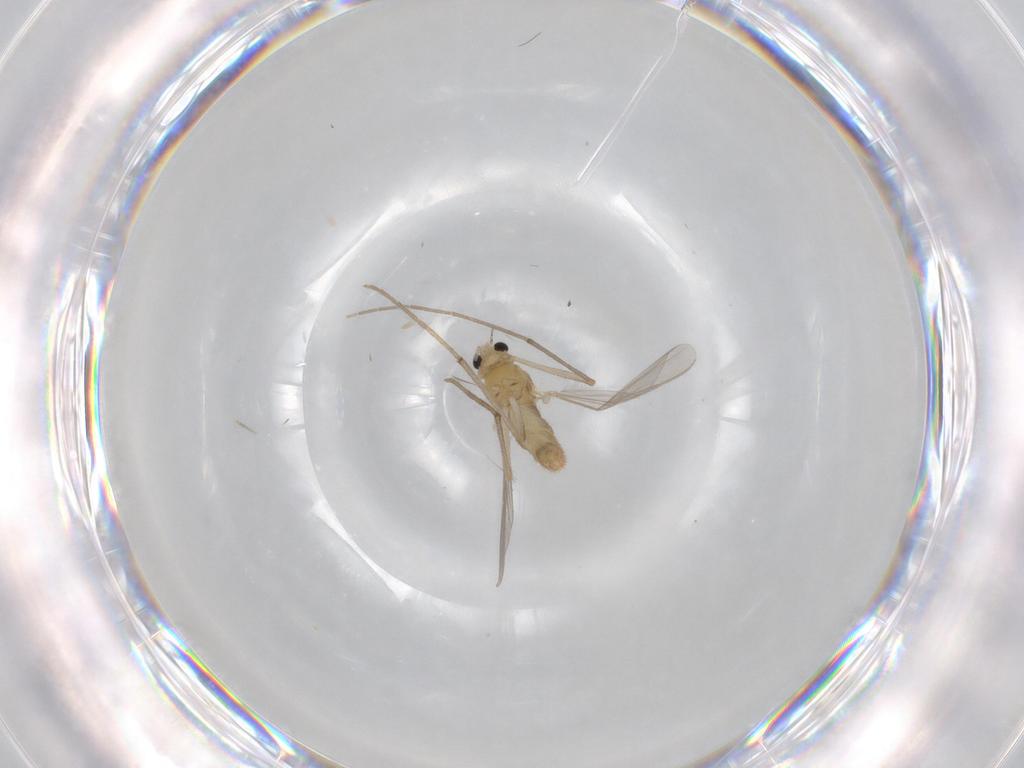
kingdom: Animalia
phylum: Arthropoda
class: Insecta
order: Diptera
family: Chironomidae
